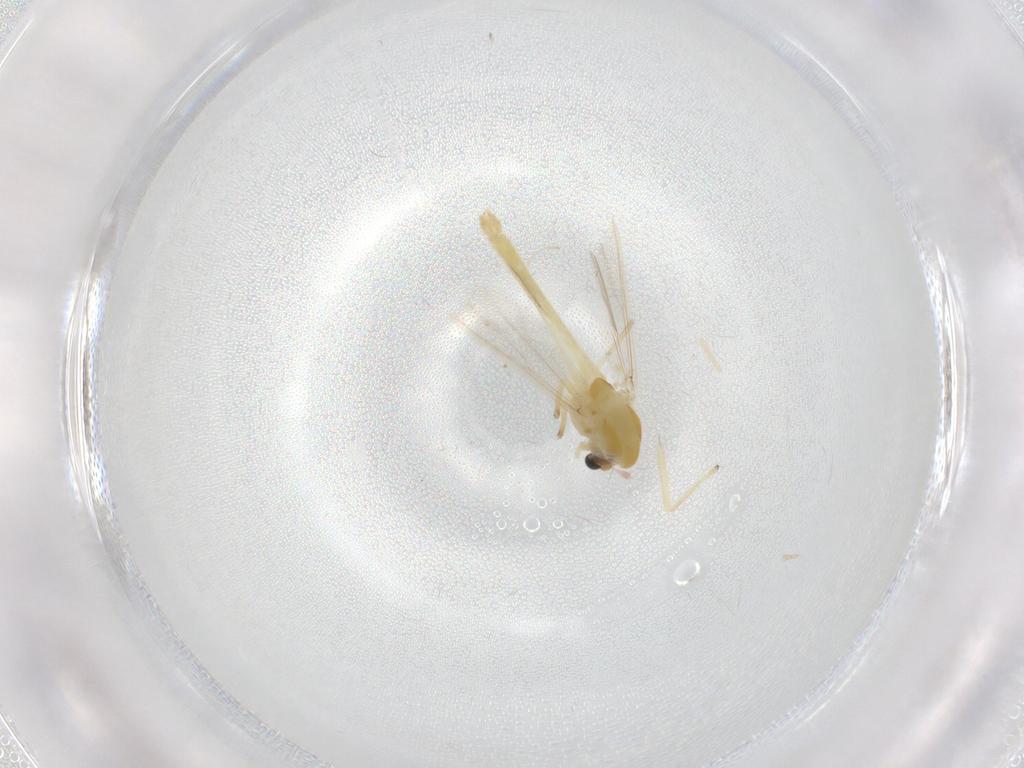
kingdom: Animalia
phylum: Arthropoda
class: Insecta
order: Diptera
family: Chironomidae
